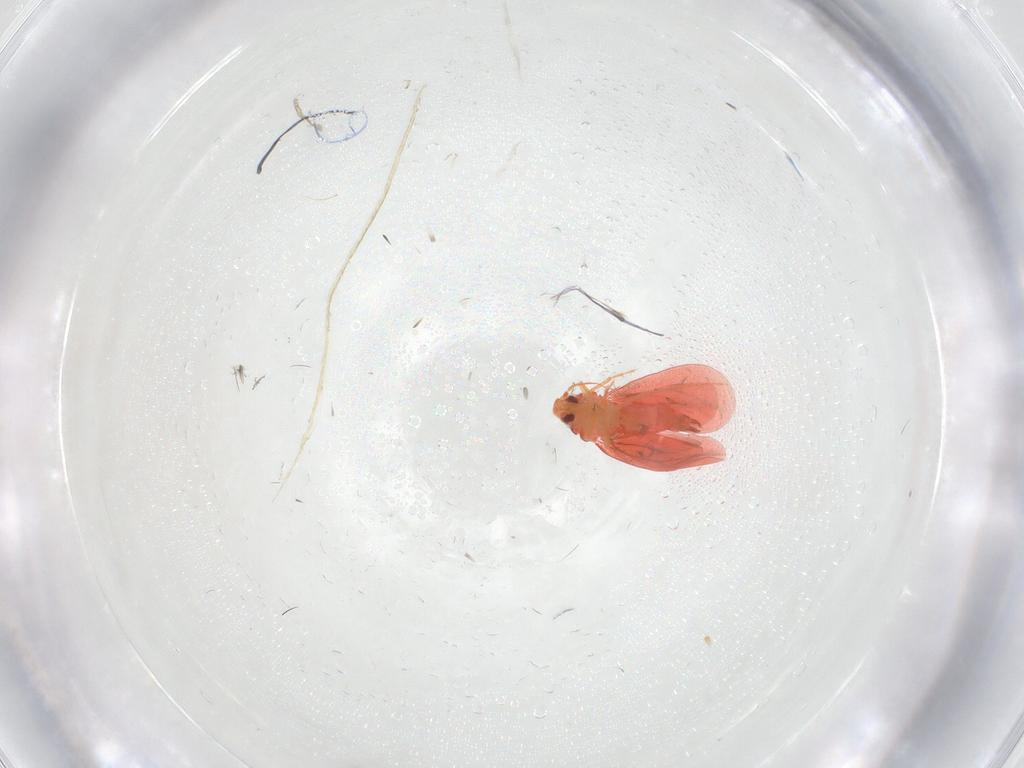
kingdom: Animalia
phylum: Arthropoda
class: Insecta
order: Hemiptera
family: Aleyrodidae
